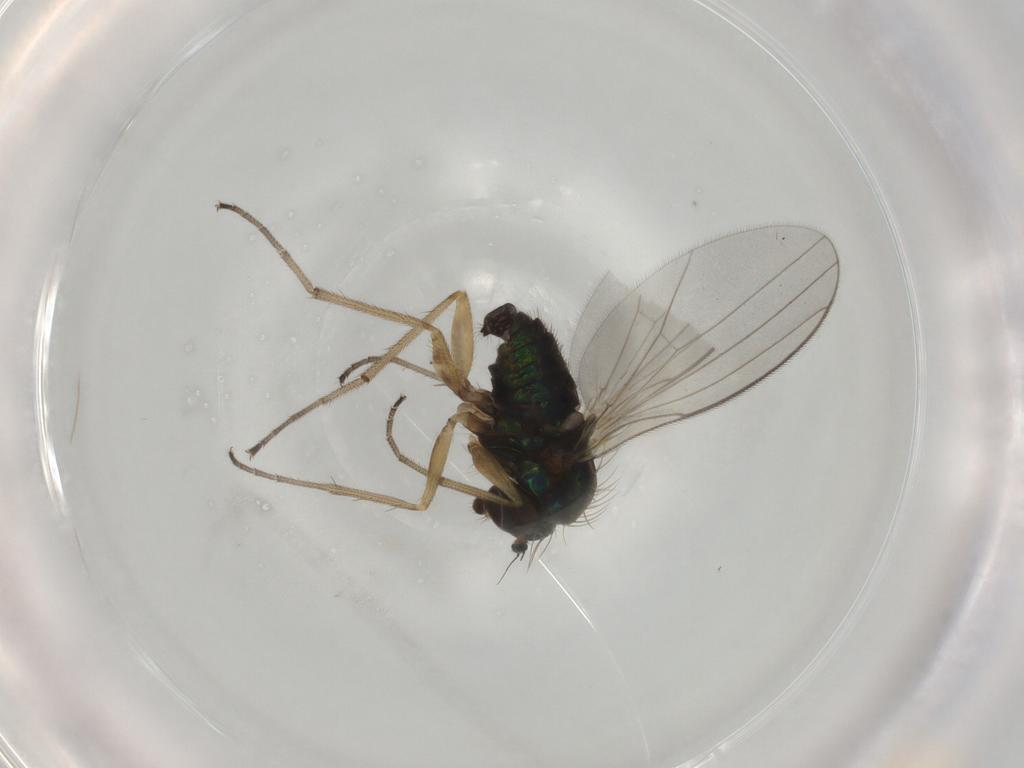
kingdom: Animalia
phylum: Arthropoda
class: Insecta
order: Diptera
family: Dolichopodidae
